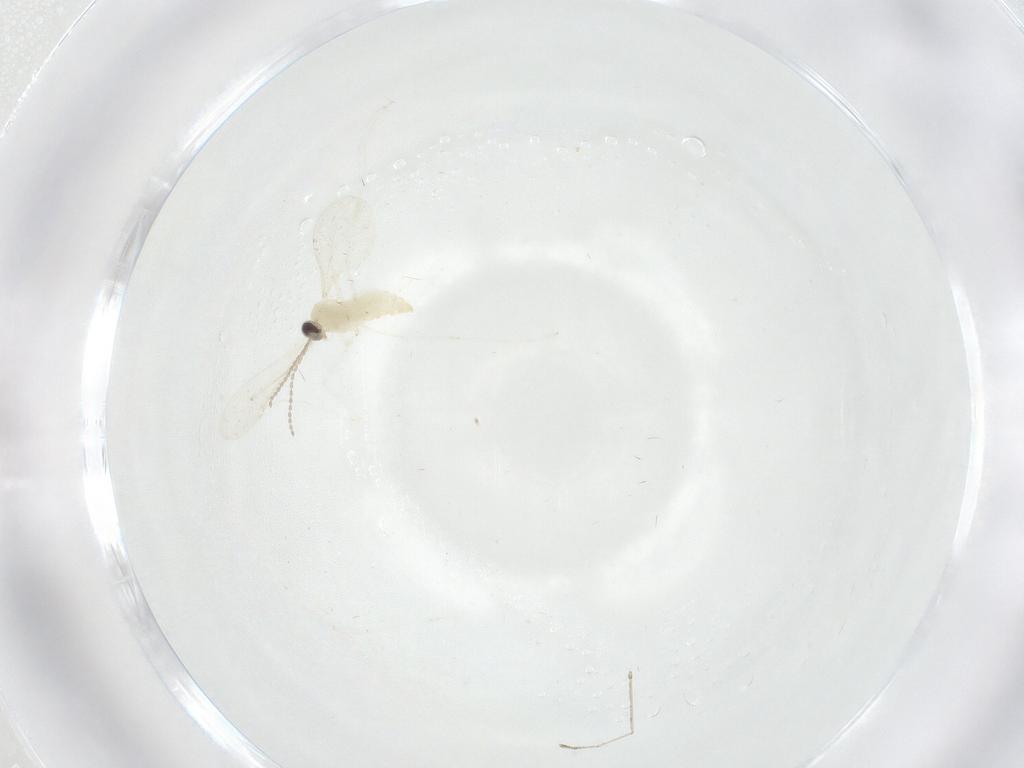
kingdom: Animalia
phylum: Arthropoda
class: Insecta
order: Diptera
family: Cecidomyiidae
